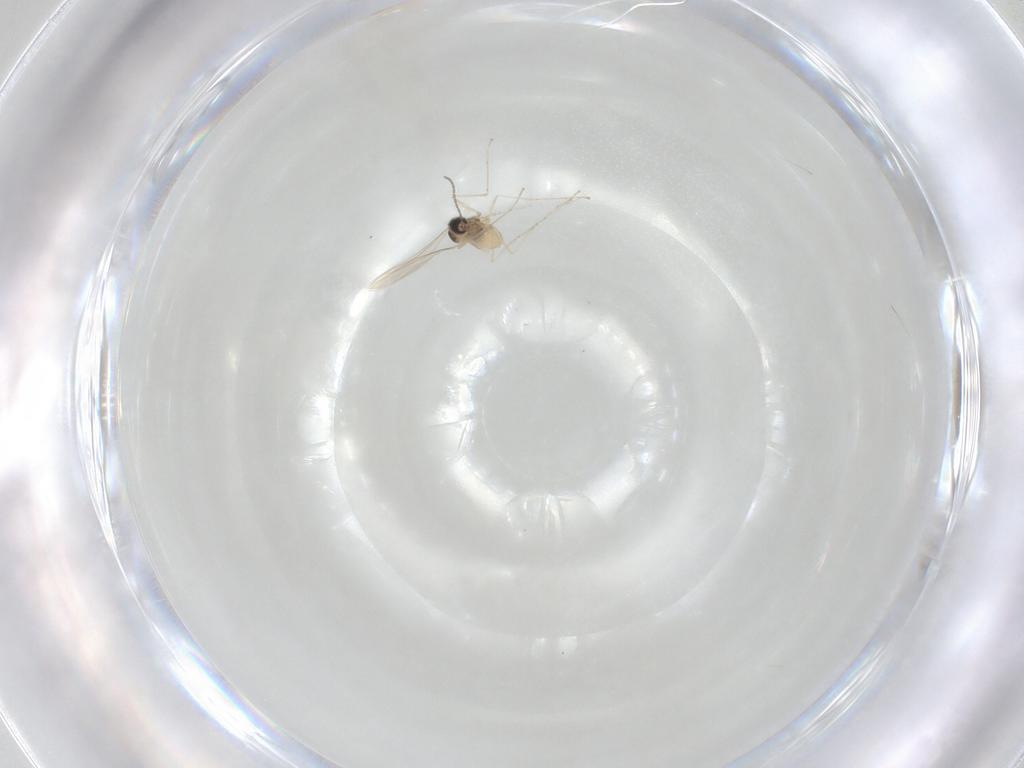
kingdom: Animalia
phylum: Arthropoda
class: Insecta
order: Diptera
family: Cecidomyiidae
